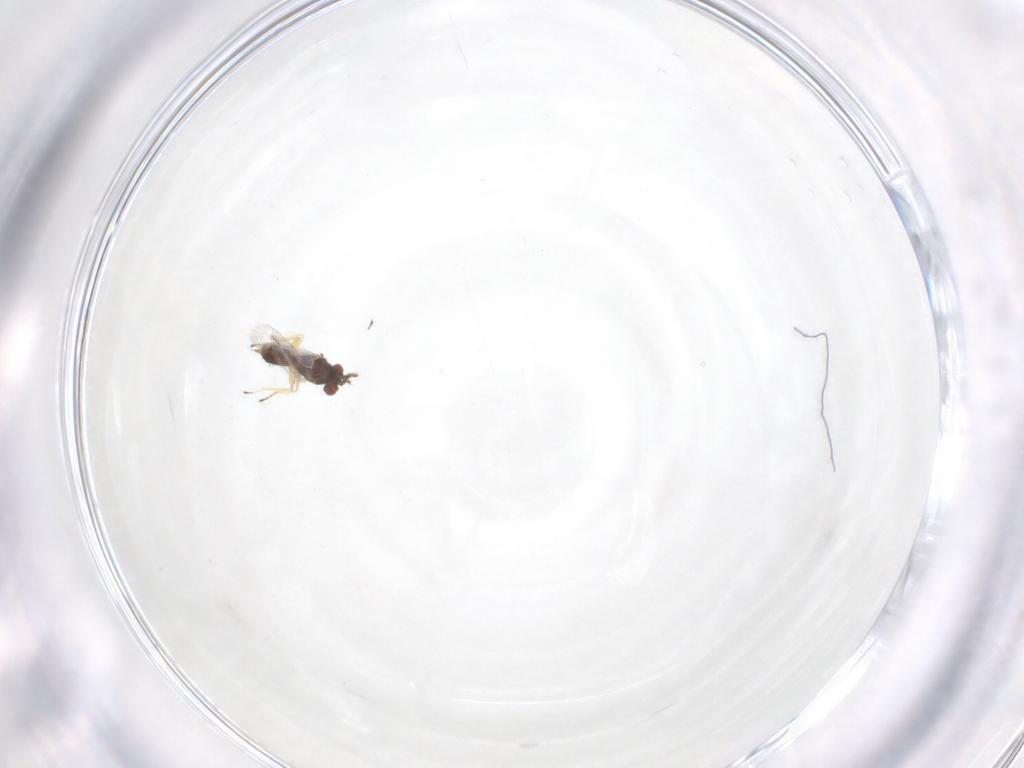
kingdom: Animalia
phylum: Arthropoda
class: Insecta
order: Hymenoptera
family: Eulophidae
